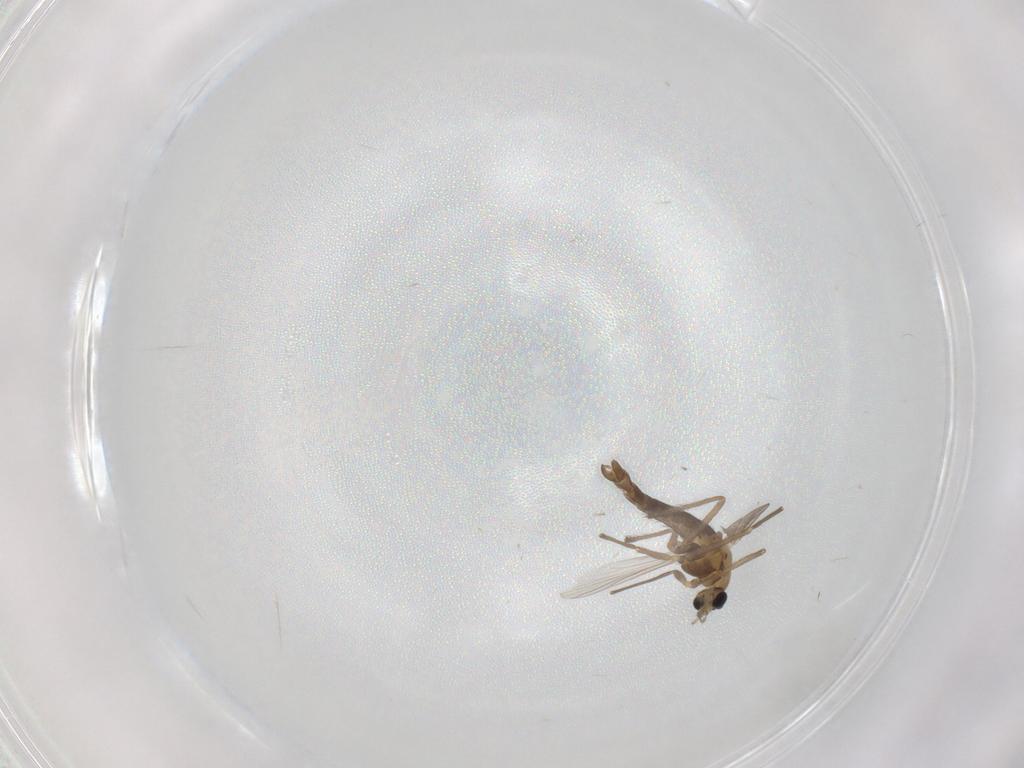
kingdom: Animalia
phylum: Arthropoda
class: Insecta
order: Diptera
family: Chironomidae
